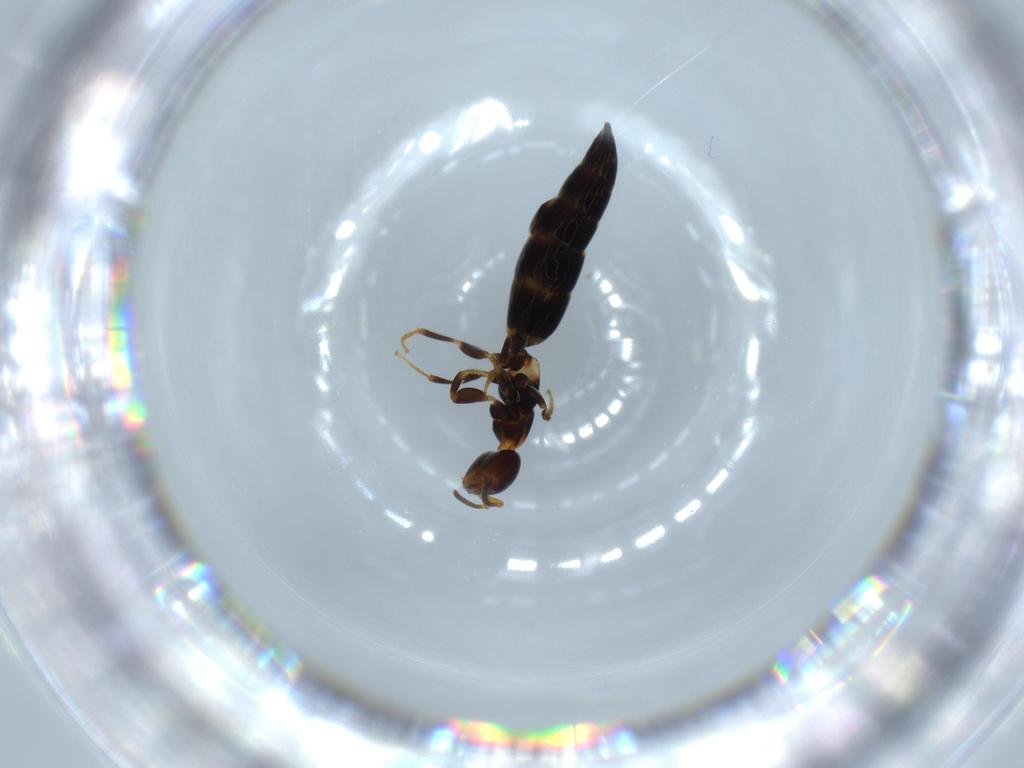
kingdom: Animalia
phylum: Arthropoda
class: Insecta
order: Hymenoptera
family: Bethylidae
